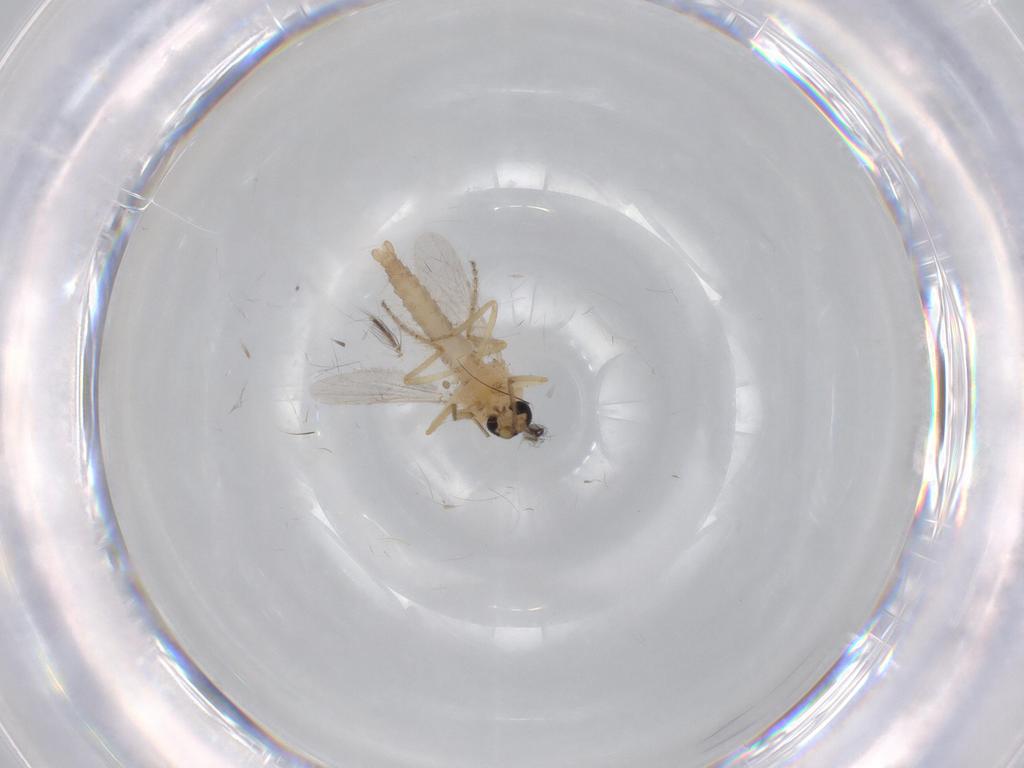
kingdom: Animalia
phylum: Arthropoda
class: Insecta
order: Diptera
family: Ceratopogonidae
